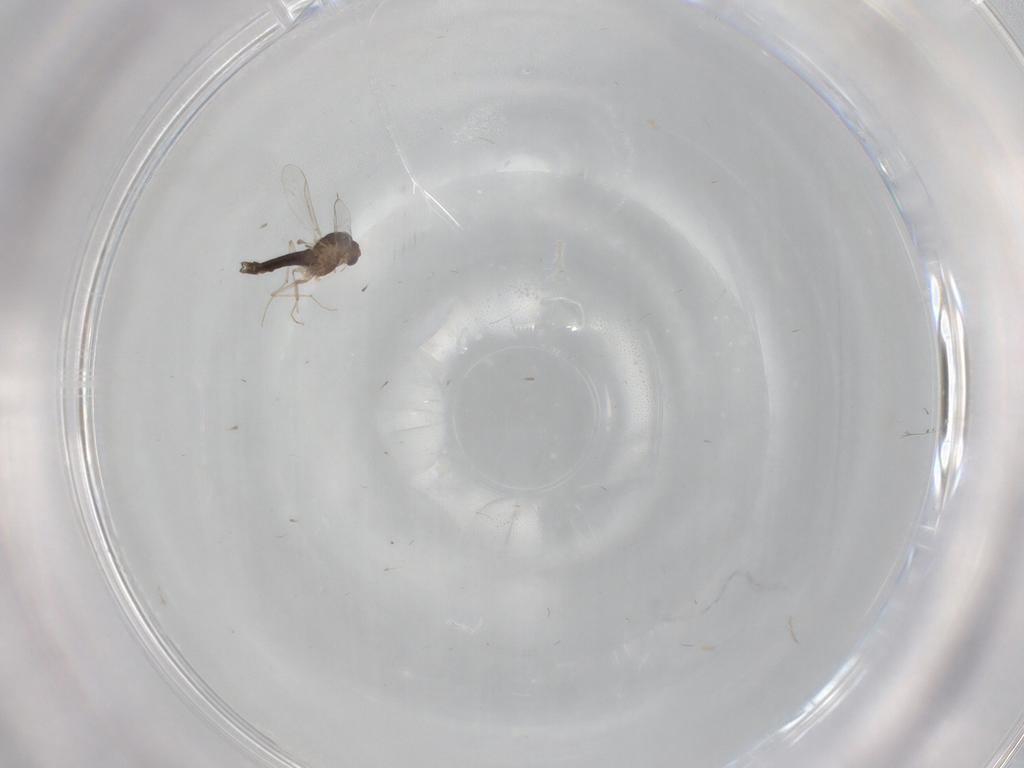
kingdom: Animalia
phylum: Arthropoda
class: Insecta
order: Diptera
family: Chironomidae
